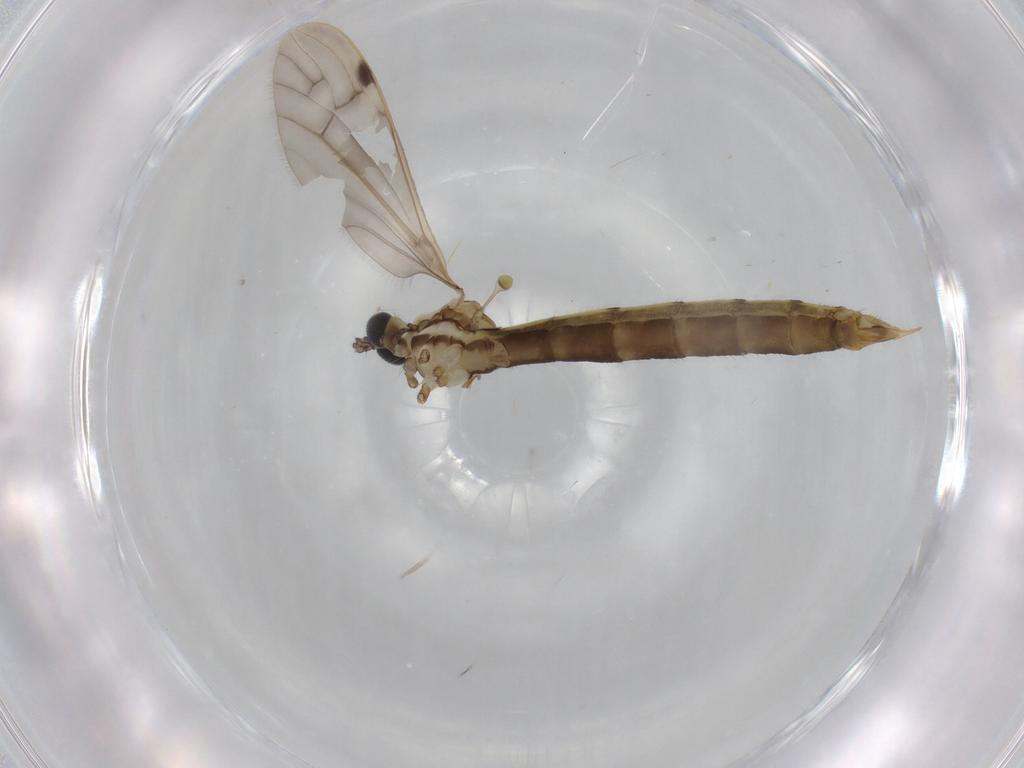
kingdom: Animalia
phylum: Arthropoda
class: Insecta
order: Diptera
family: Limoniidae
